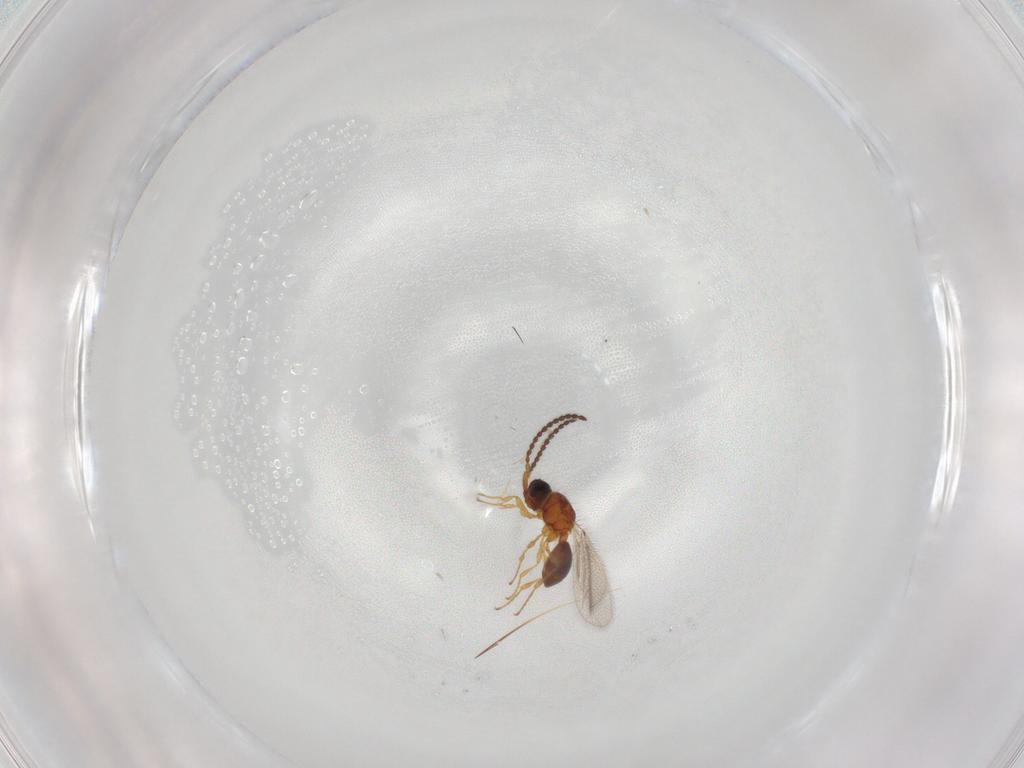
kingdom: Animalia
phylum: Arthropoda
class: Insecta
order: Hymenoptera
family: Diapriidae
